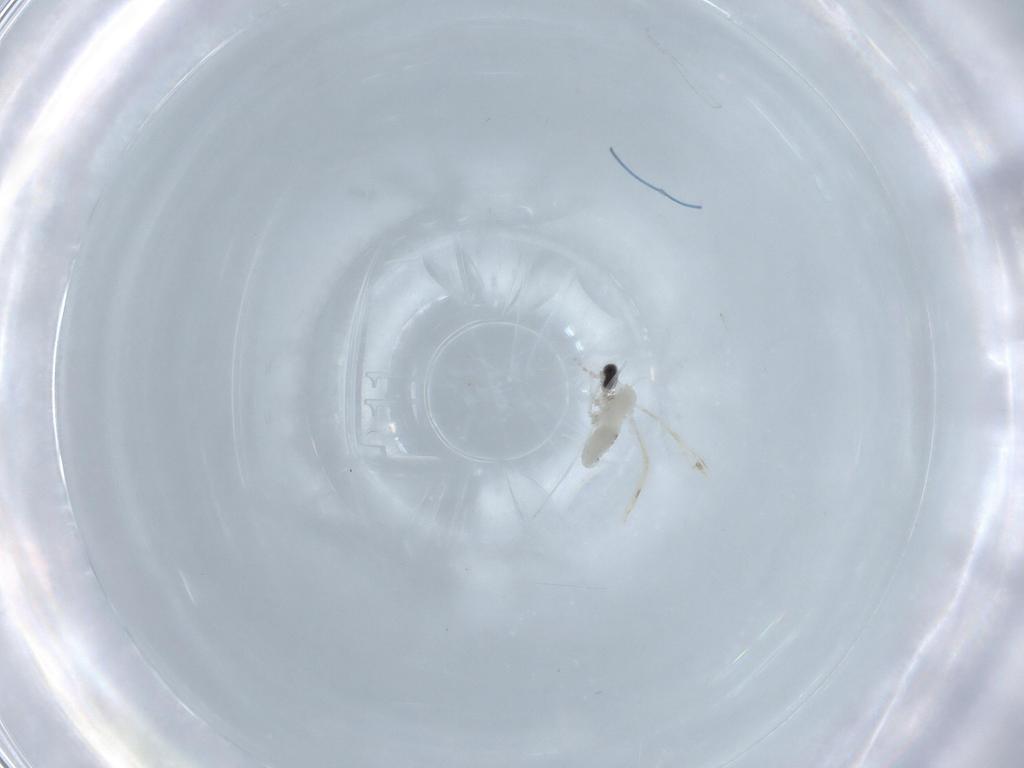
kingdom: Animalia
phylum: Arthropoda
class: Insecta
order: Diptera
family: Cecidomyiidae
